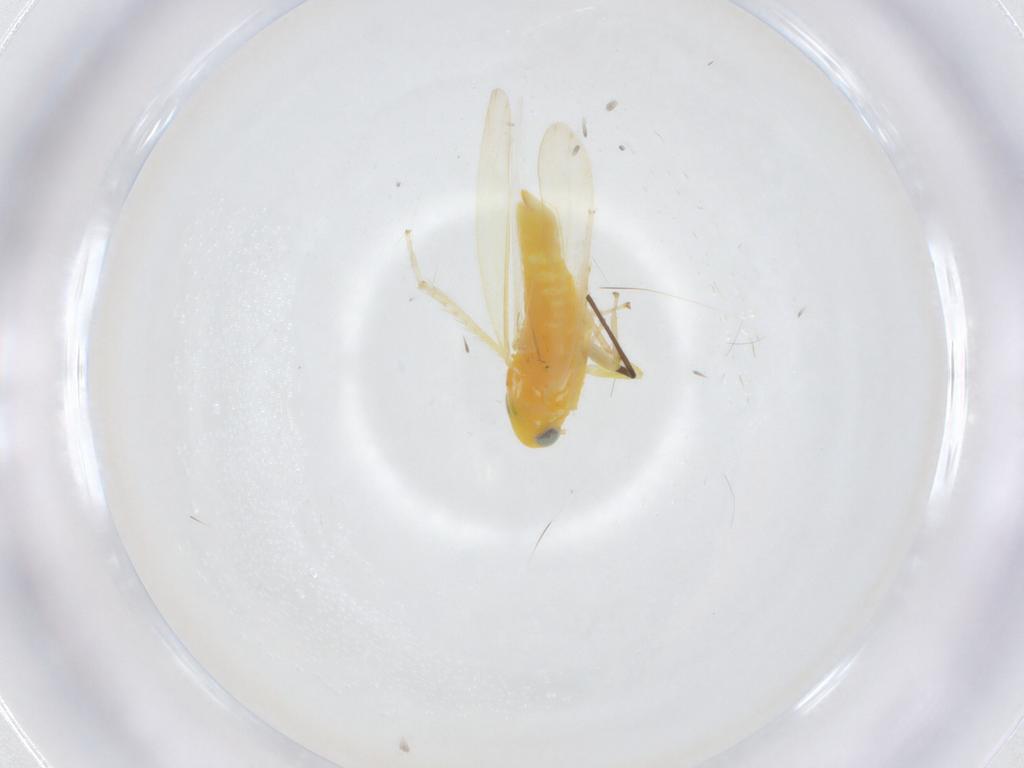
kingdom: Animalia
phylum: Arthropoda
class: Insecta
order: Hemiptera
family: Cicadellidae
